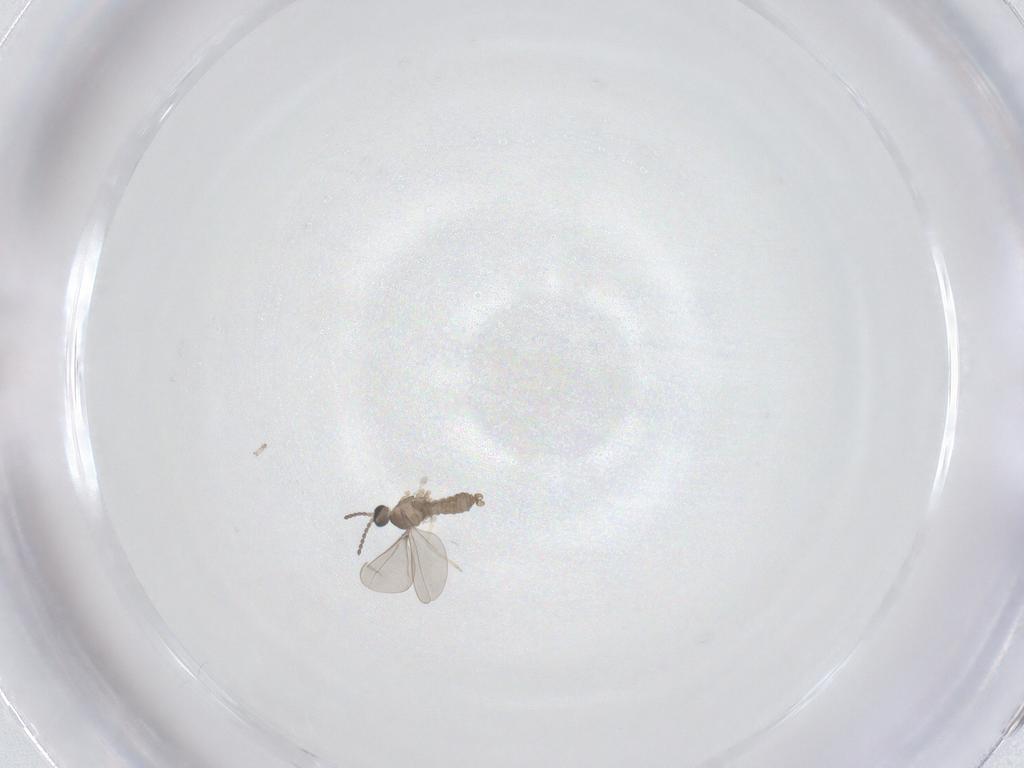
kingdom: Animalia
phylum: Arthropoda
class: Insecta
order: Diptera
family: Cecidomyiidae
